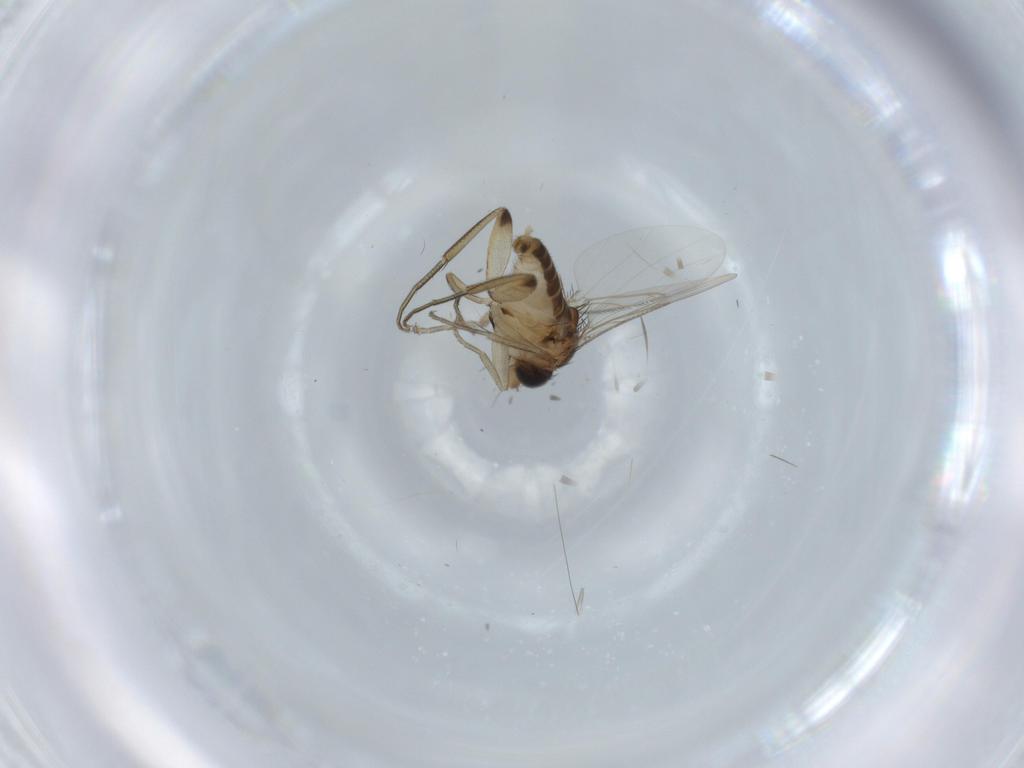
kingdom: Animalia
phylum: Arthropoda
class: Insecta
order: Diptera
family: Phoridae
